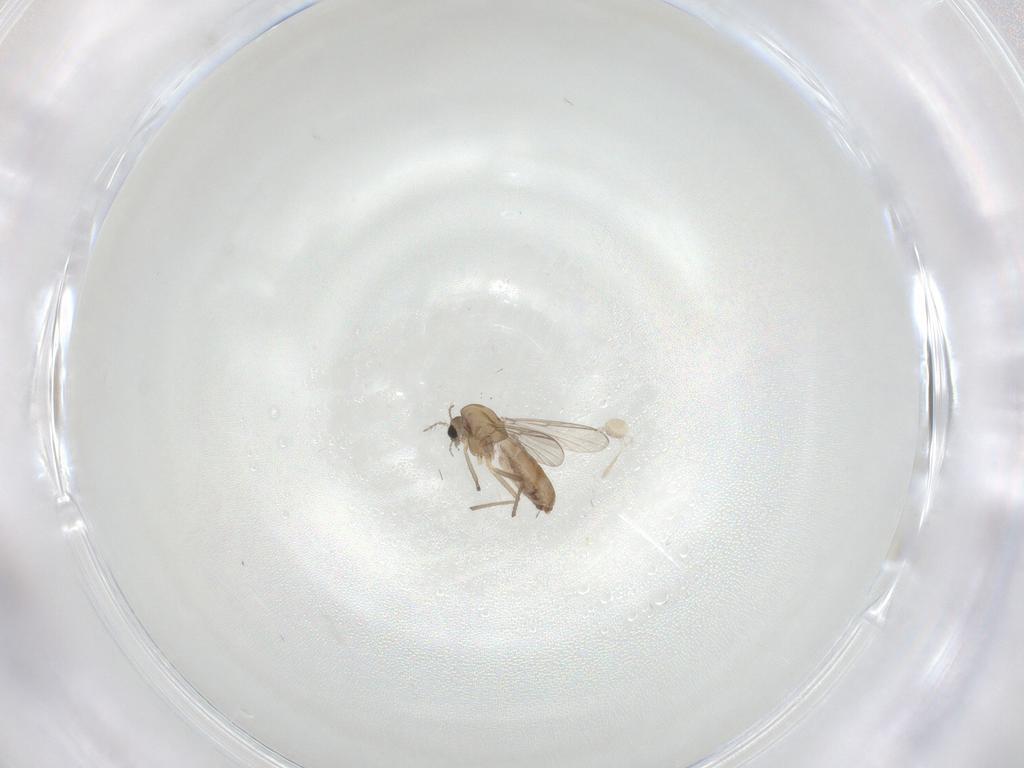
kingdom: Animalia
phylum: Arthropoda
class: Insecta
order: Diptera
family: Chironomidae
